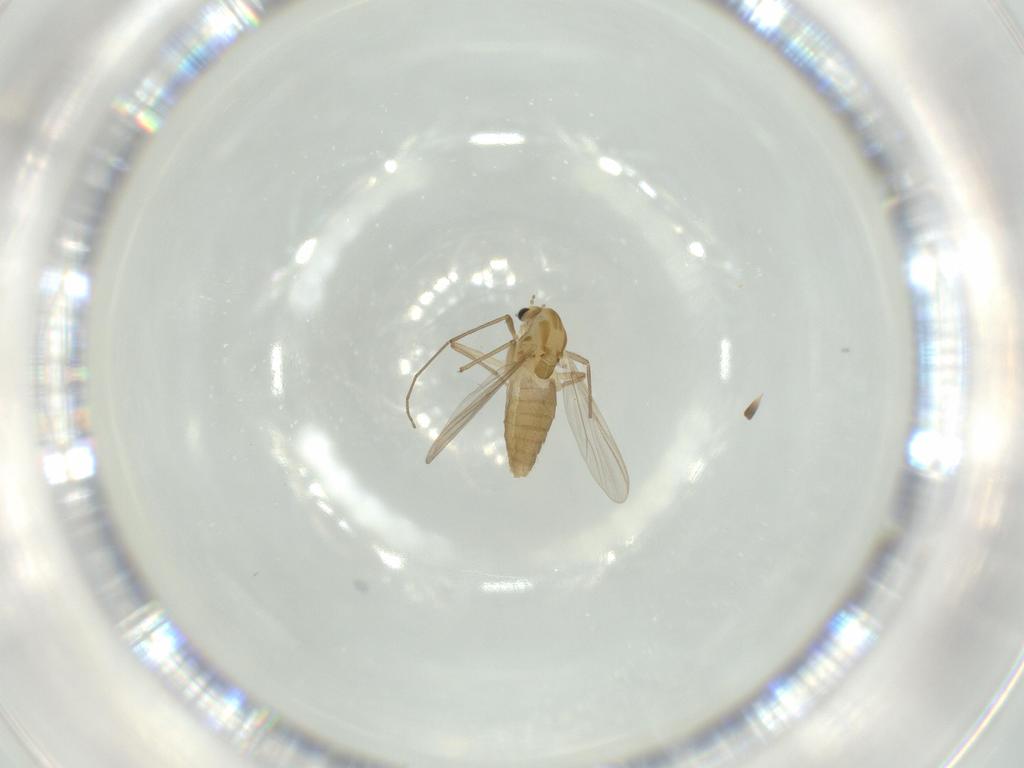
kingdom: Animalia
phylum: Arthropoda
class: Insecta
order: Diptera
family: Chironomidae
